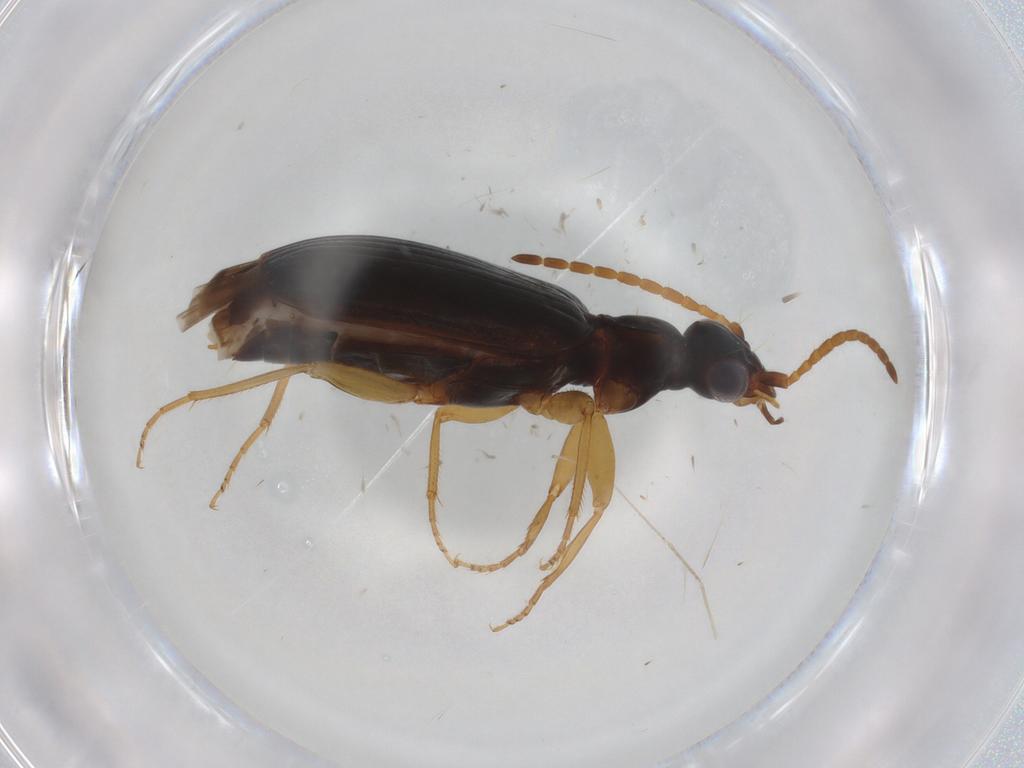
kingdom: Animalia
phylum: Arthropoda
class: Insecta
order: Coleoptera
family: Carabidae
